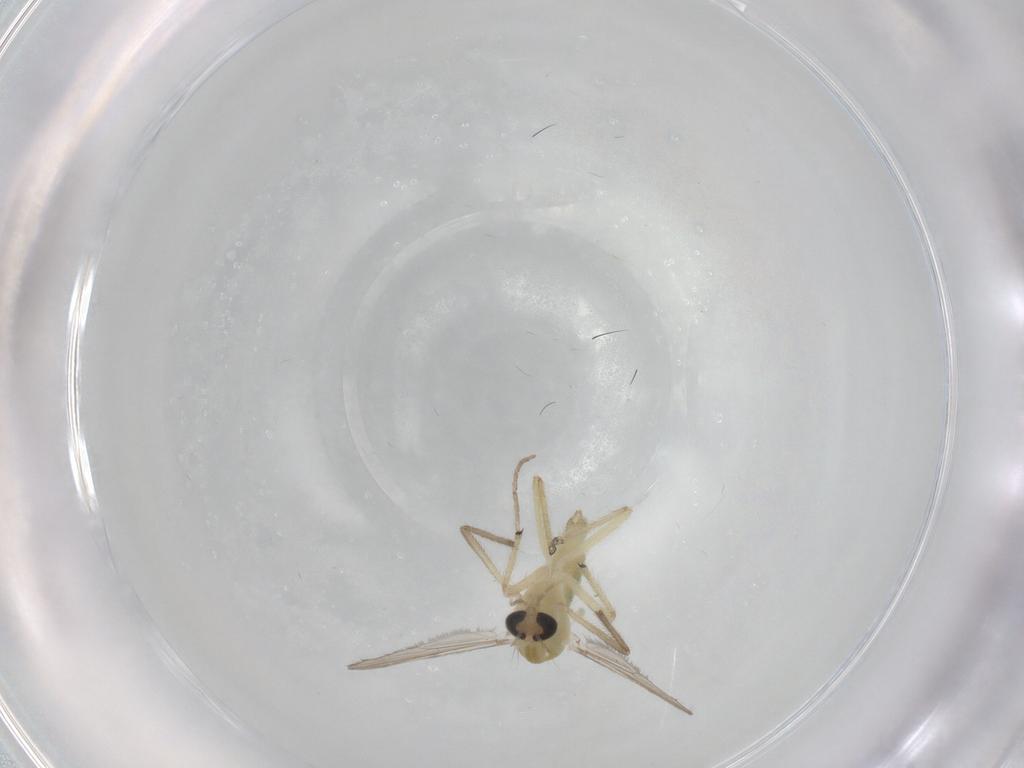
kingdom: Animalia
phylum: Arthropoda
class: Insecta
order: Diptera
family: Chironomidae
